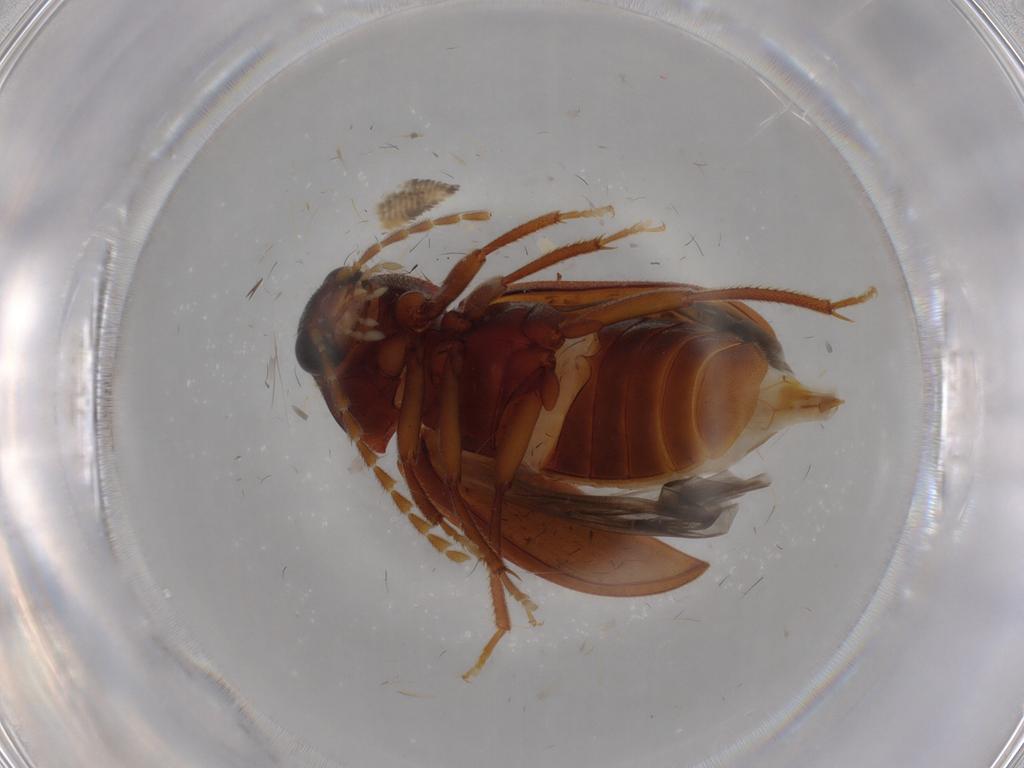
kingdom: Animalia
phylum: Arthropoda
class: Insecta
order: Coleoptera
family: Ptilodactylidae
